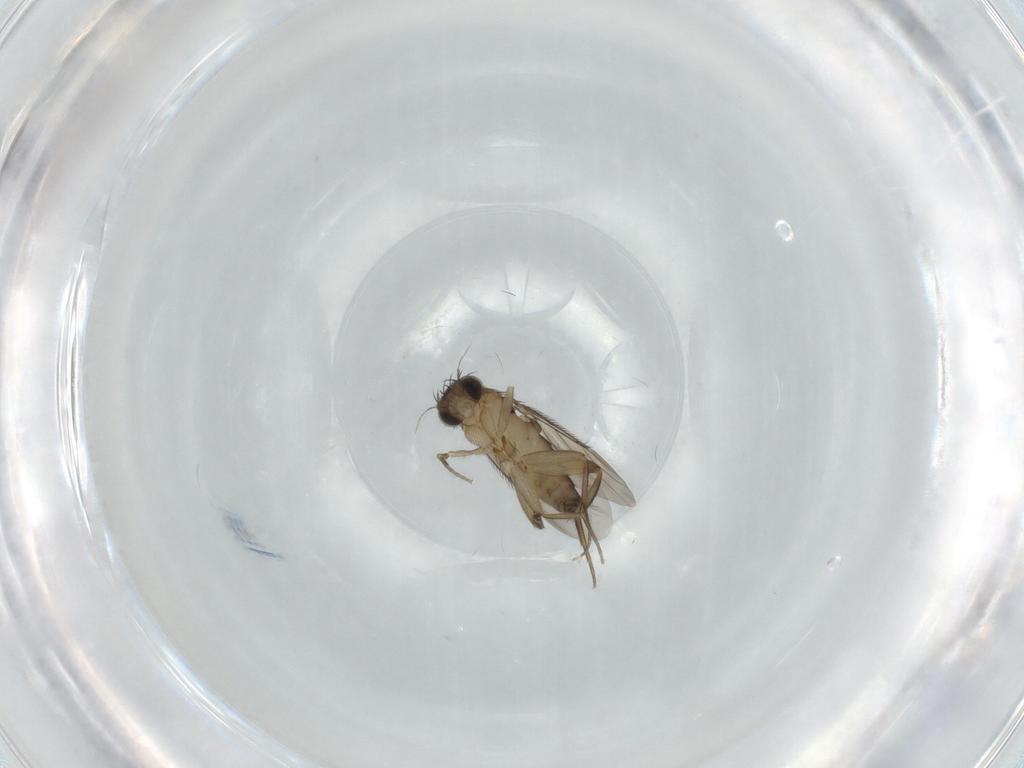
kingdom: Animalia
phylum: Arthropoda
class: Insecta
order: Diptera
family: Phoridae
